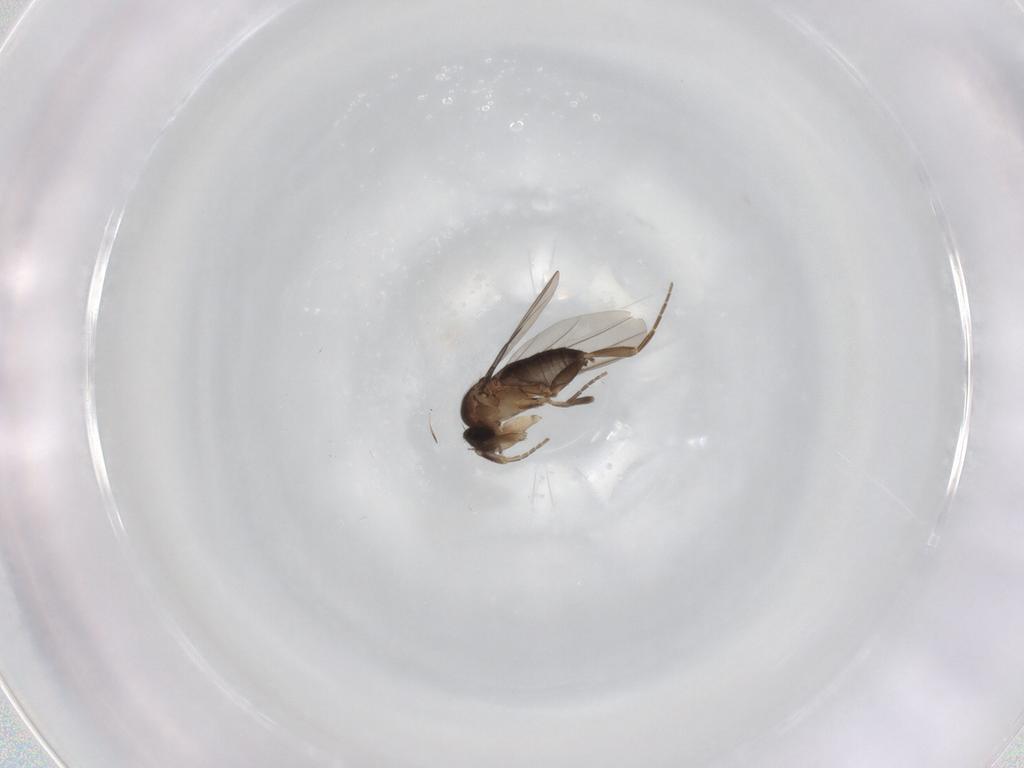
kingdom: Animalia
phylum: Arthropoda
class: Insecta
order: Diptera
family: Phoridae
